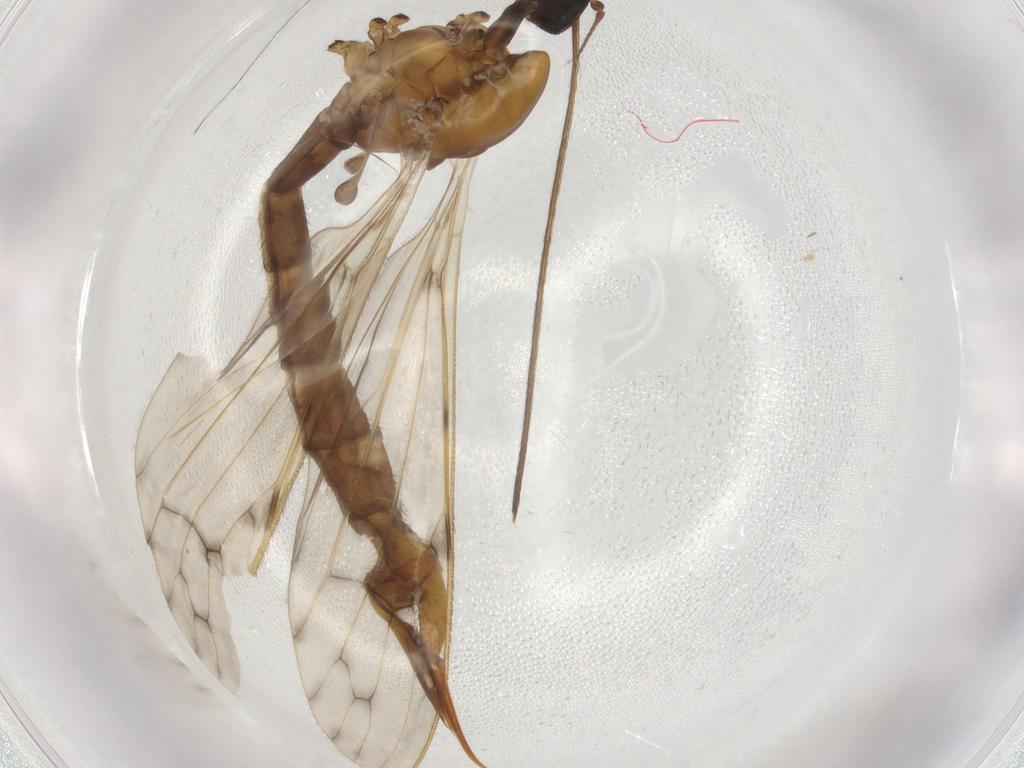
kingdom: Animalia
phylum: Arthropoda
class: Insecta
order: Diptera
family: Limoniidae
